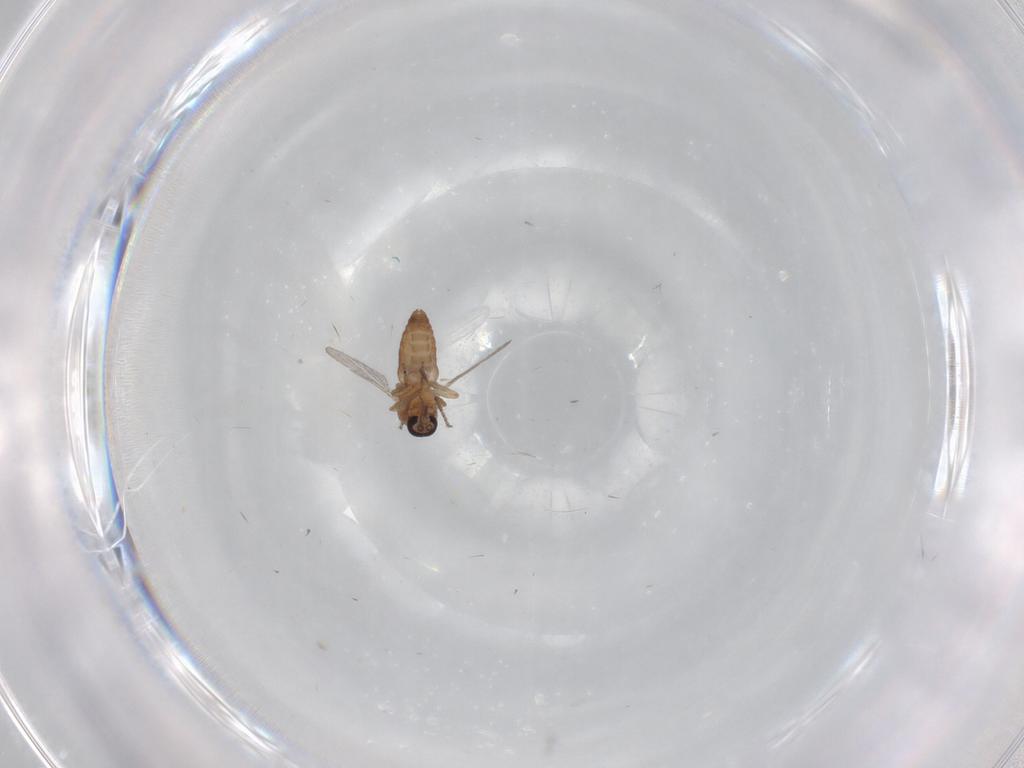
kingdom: Animalia
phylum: Arthropoda
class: Insecta
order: Diptera
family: Ceratopogonidae
